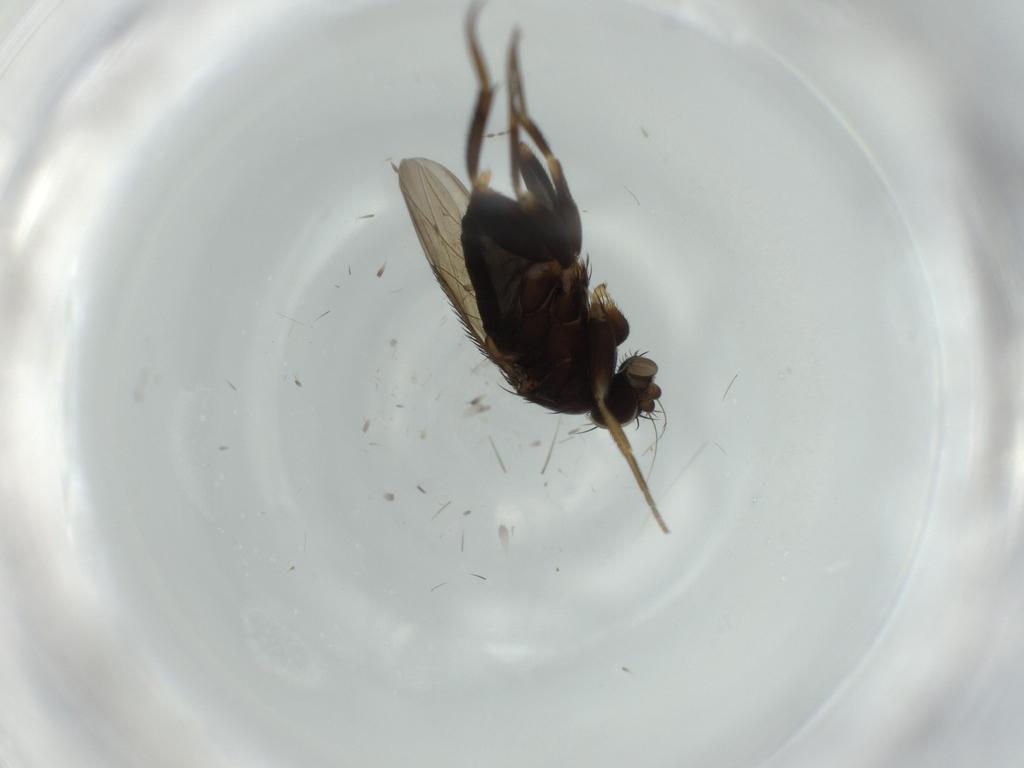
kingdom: Animalia
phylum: Arthropoda
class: Insecta
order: Diptera
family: Phoridae
